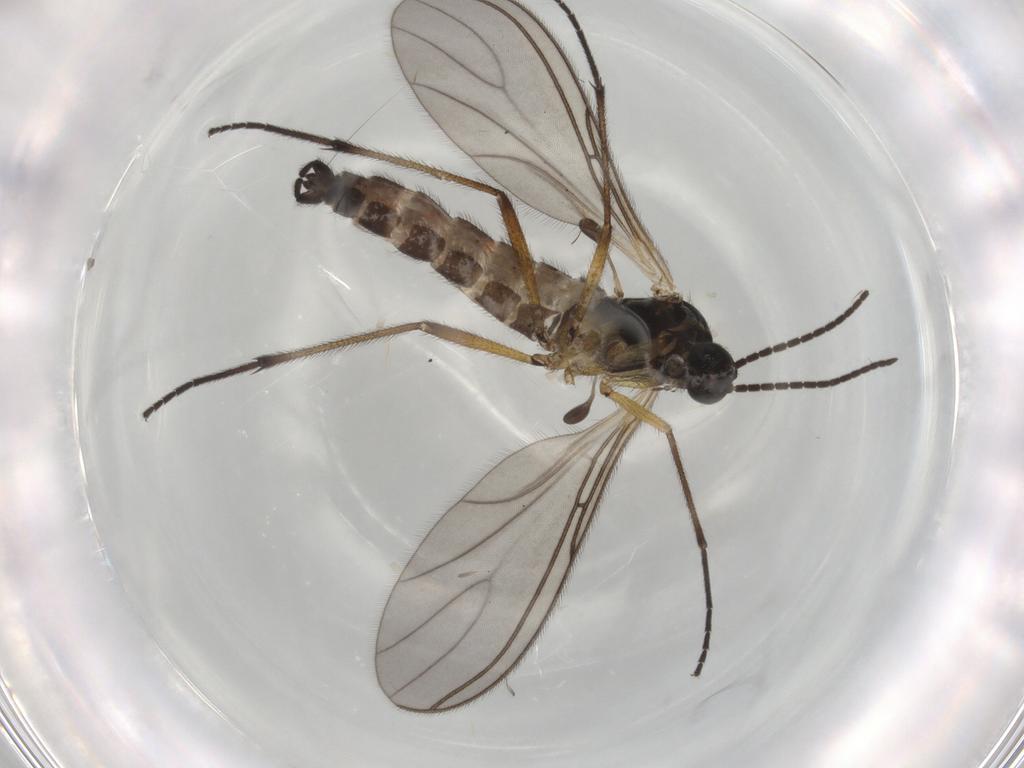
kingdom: Animalia
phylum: Arthropoda
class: Insecta
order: Diptera
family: Sciaridae
